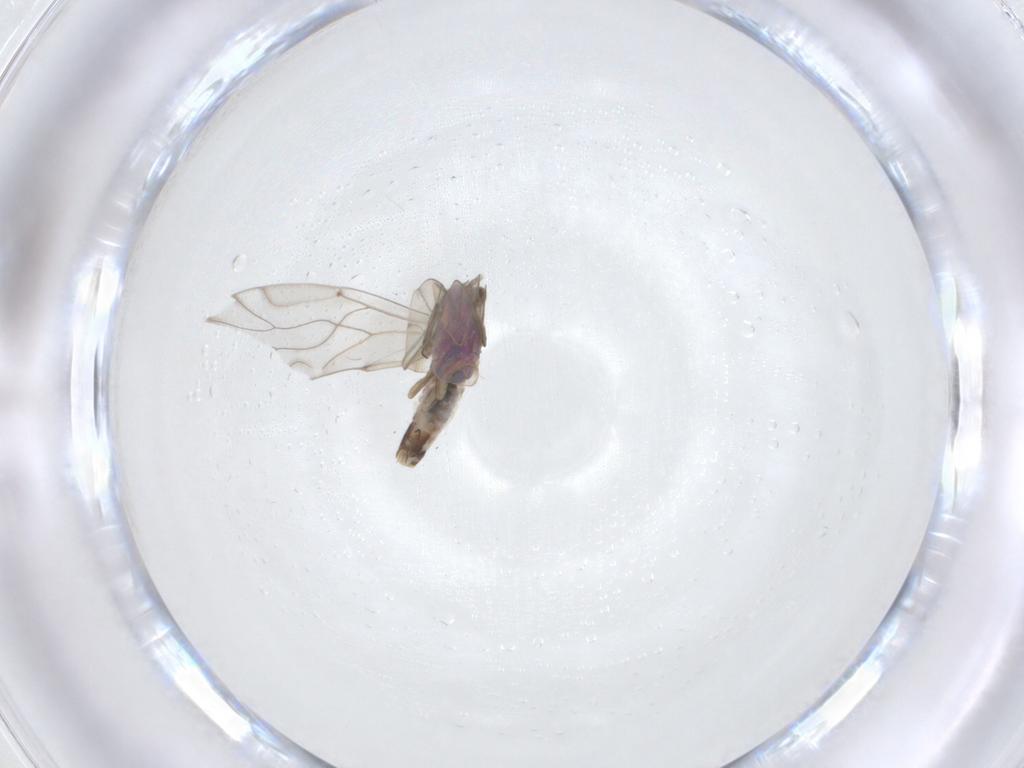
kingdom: Animalia
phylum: Arthropoda
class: Insecta
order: Psocodea
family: Lachesillidae
